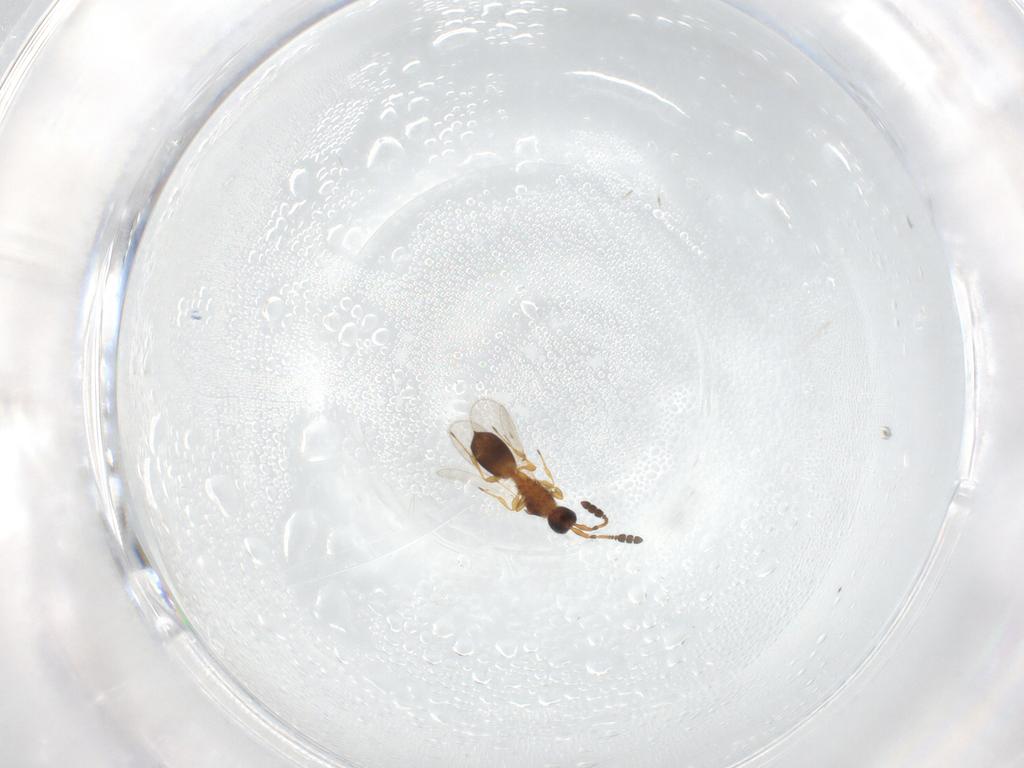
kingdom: Animalia
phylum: Arthropoda
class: Insecta
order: Hymenoptera
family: Diapriidae
